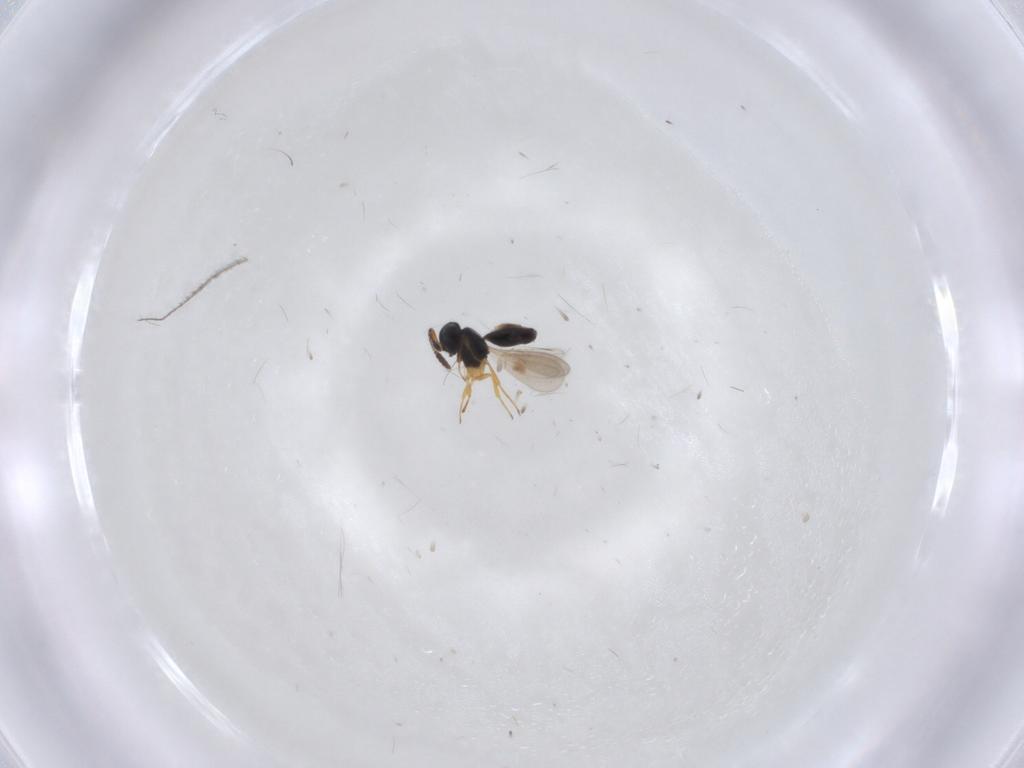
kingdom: Animalia
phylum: Arthropoda
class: Insecta
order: Hymenoptera
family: Scelionidae
